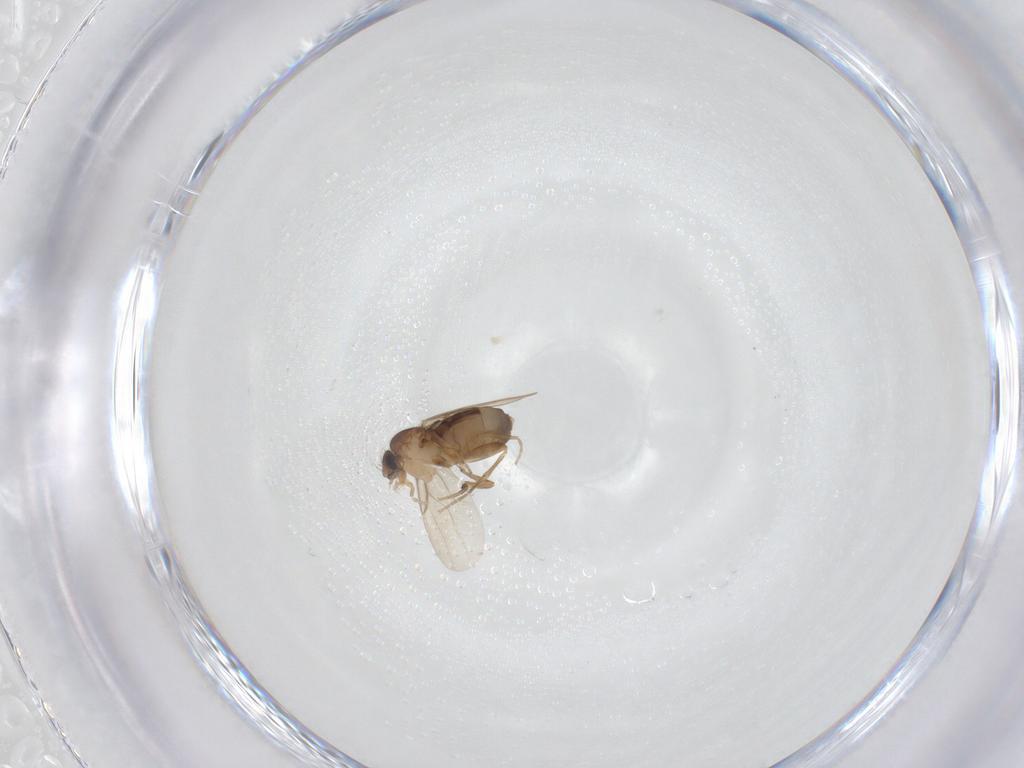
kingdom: Animalia
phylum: Arthropoda
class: Insecta
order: Diptera
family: Phoridae
